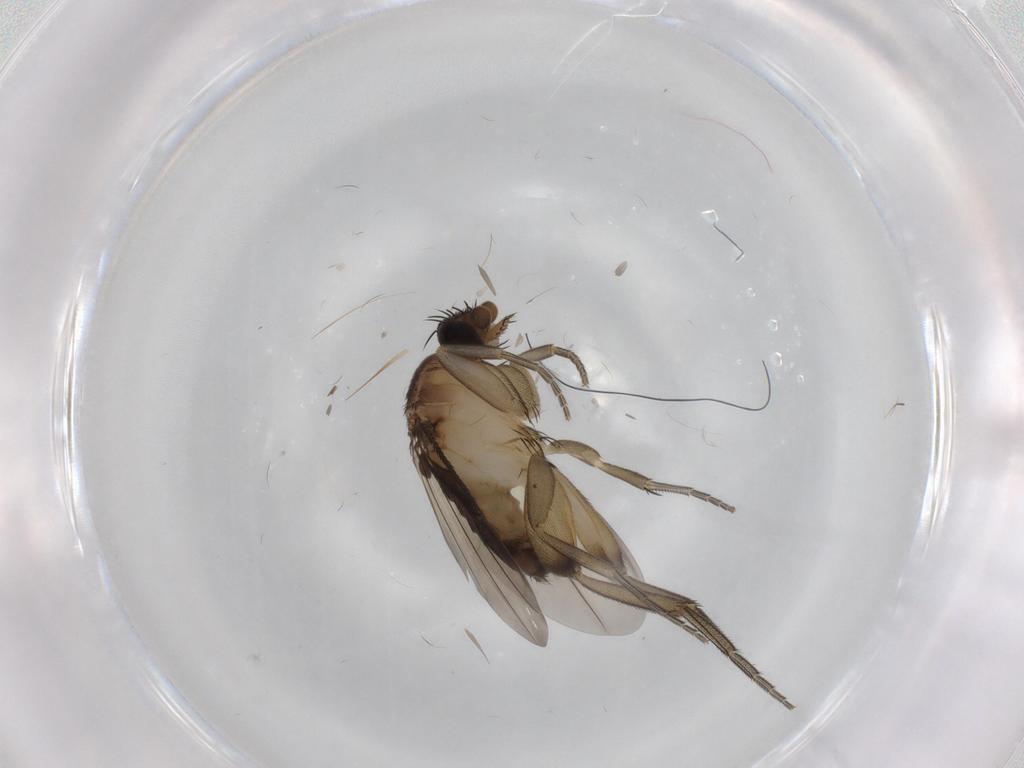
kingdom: Animalia
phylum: Arthropoda
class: Insecta
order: Diptera
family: Phoridae
